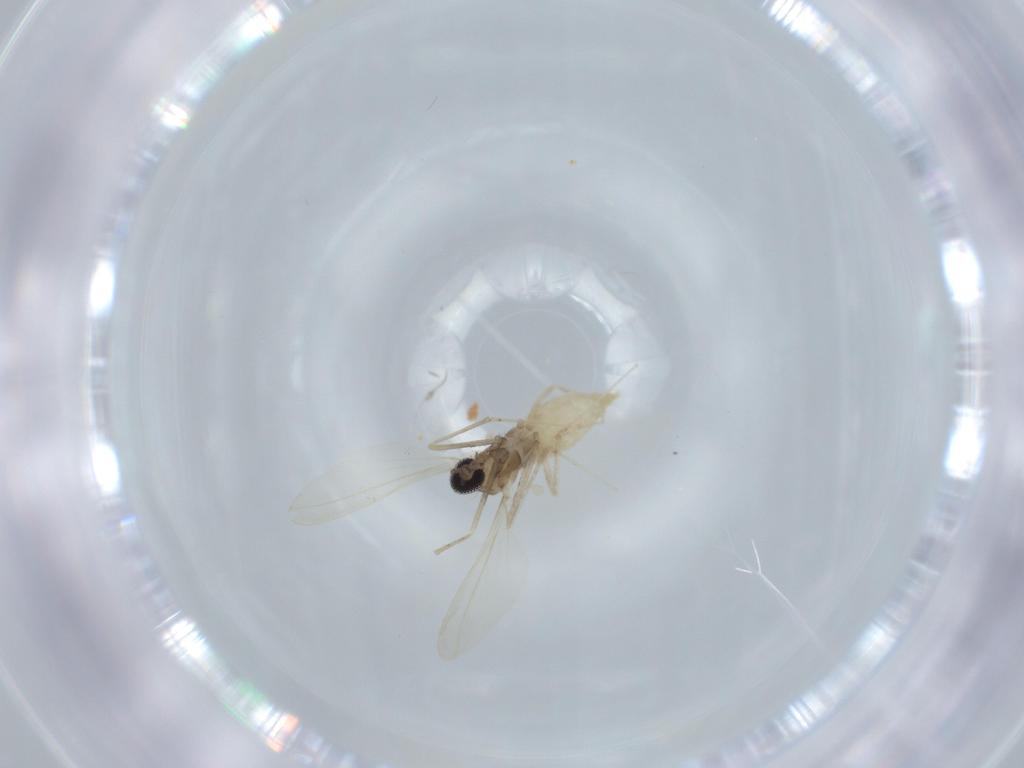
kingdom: Animalia
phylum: Arthropoda
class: Insecta
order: Diptera
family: Cecidomyiidae
